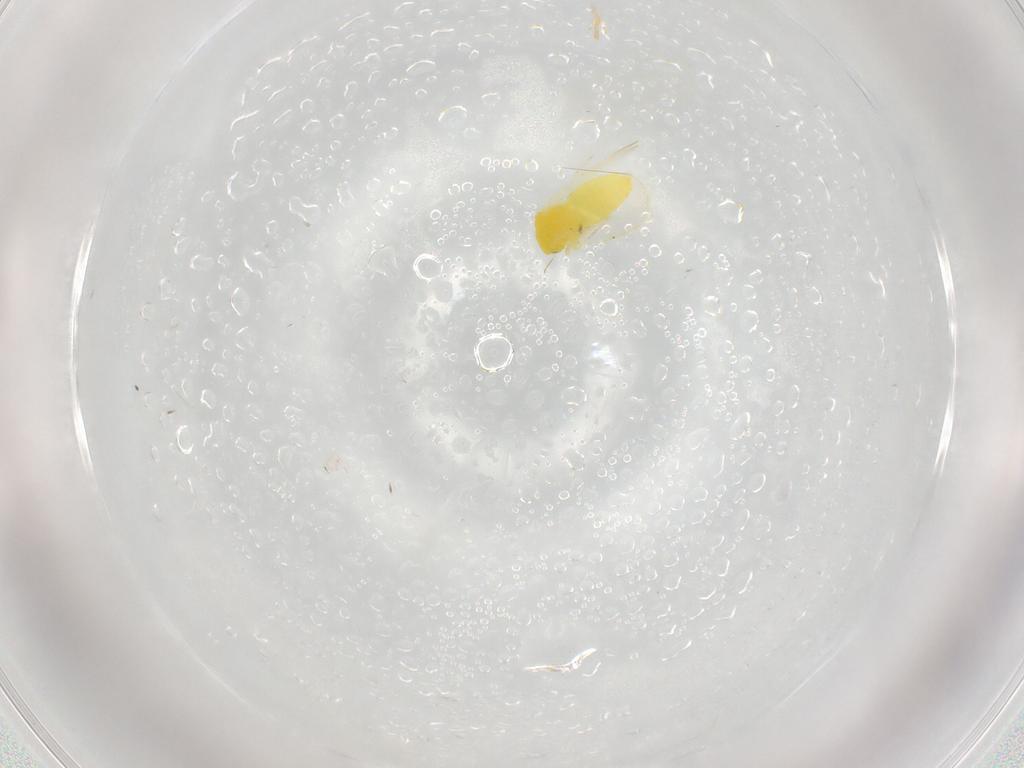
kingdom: Animalia
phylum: Arthropoda
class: Insecta
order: Hemiptera
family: Aleyrodidae
